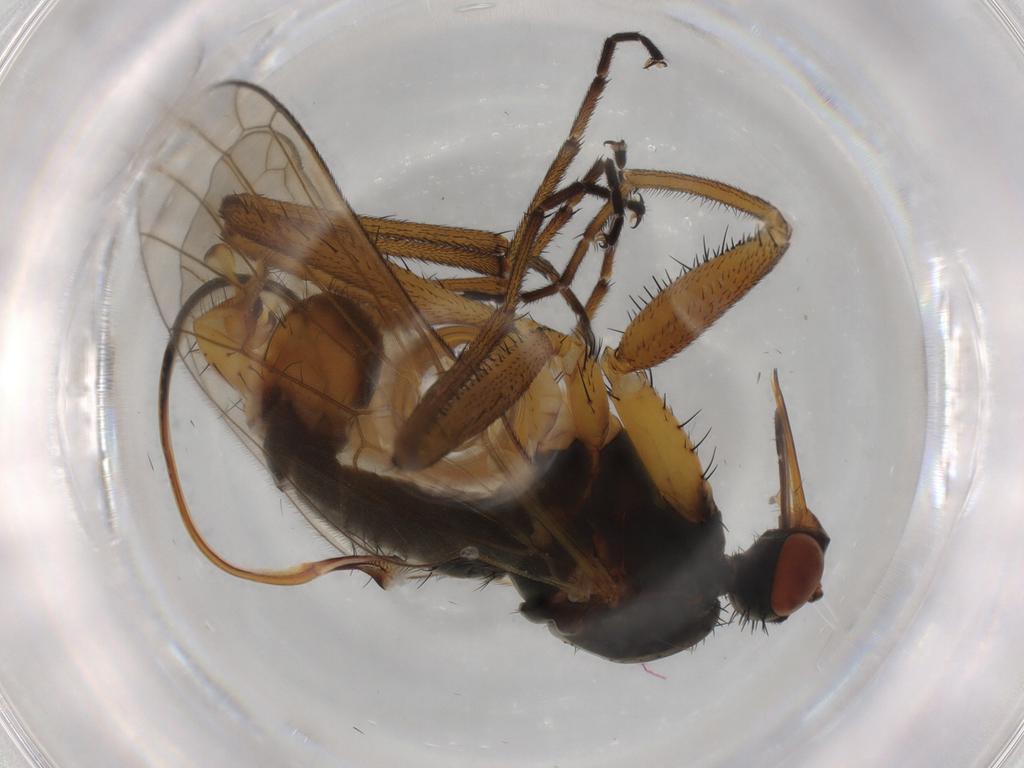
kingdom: Animalia
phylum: Arthropoda
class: Insecta
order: Diptera
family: Empididae
